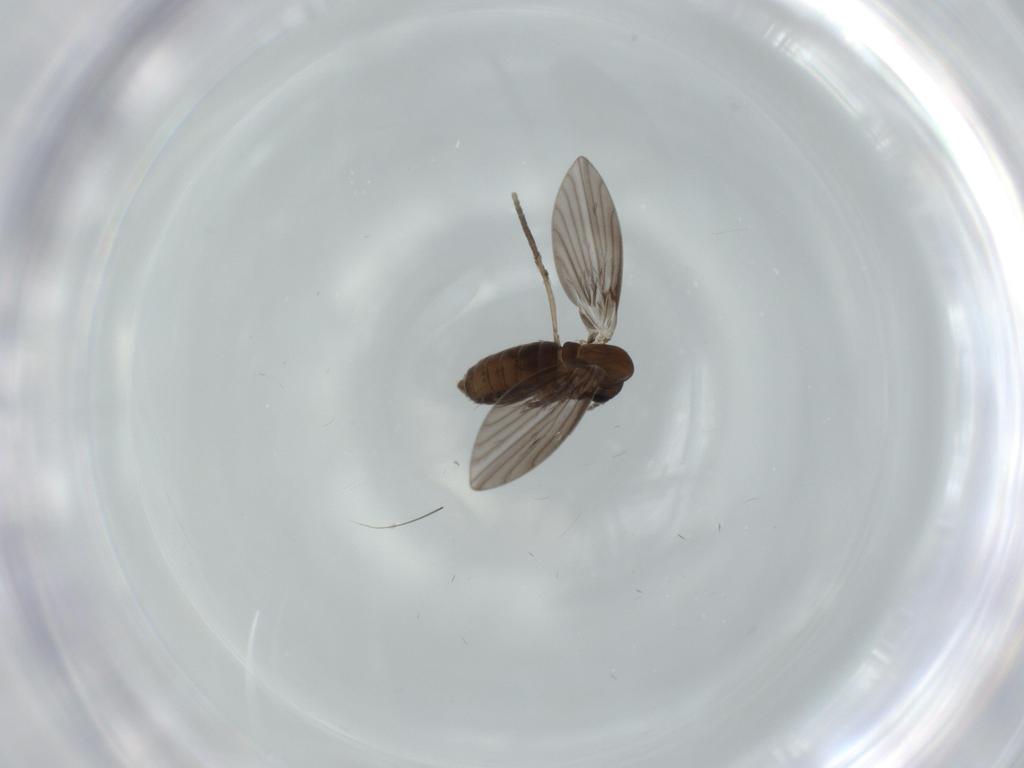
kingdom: Animalia
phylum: Arthropoda
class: Insecta
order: Diptera
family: Psychodidae
